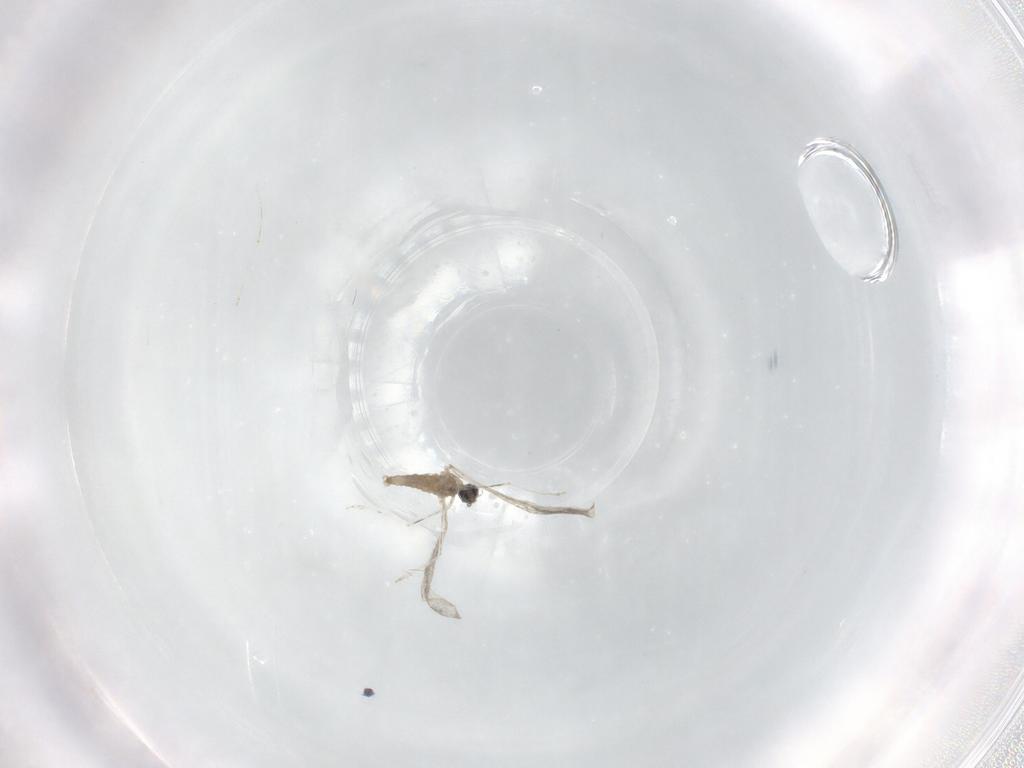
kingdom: Animalia
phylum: Arthropoda
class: Insecta
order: Diptera
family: Cecidomyiidae
